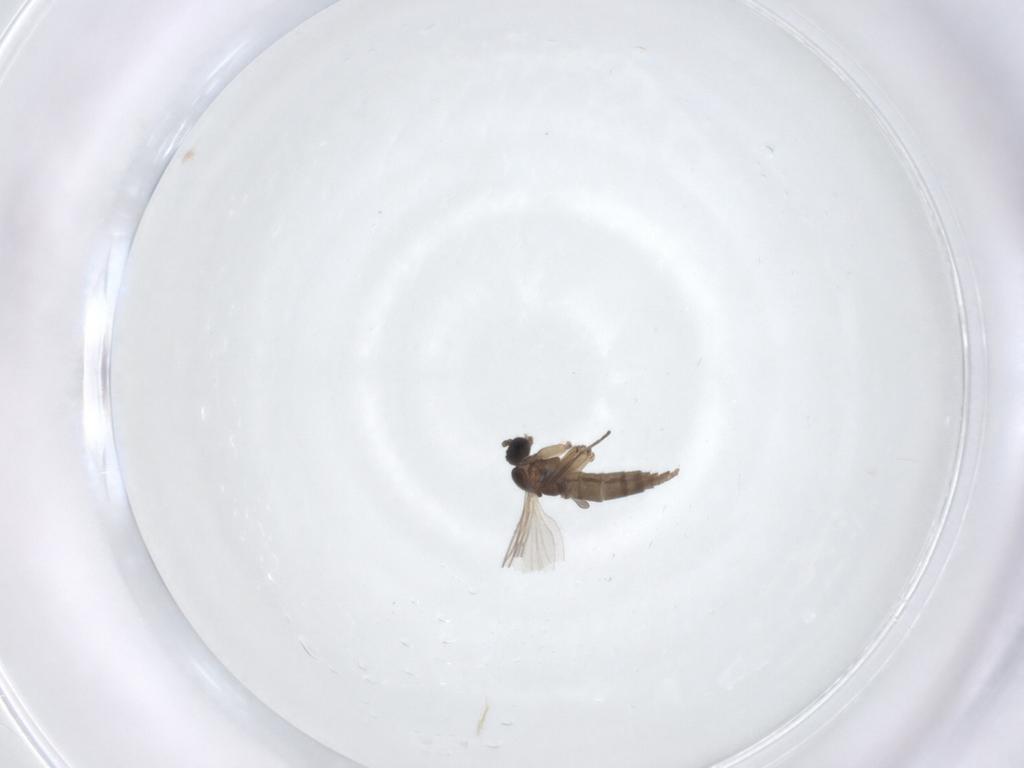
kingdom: Animalia
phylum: Arthropoda
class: Insecta
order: Diptera
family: Sciaridae
